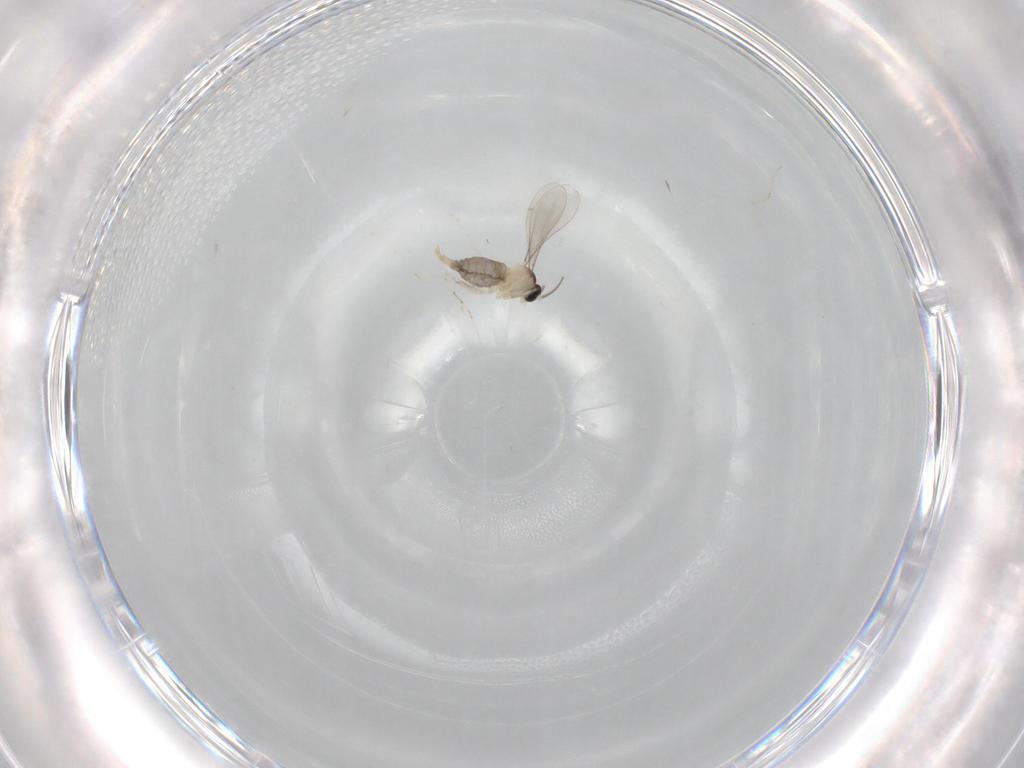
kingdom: Animalia
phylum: Arthropoda
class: Insecta
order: Diptera
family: Cecidomyiidae
